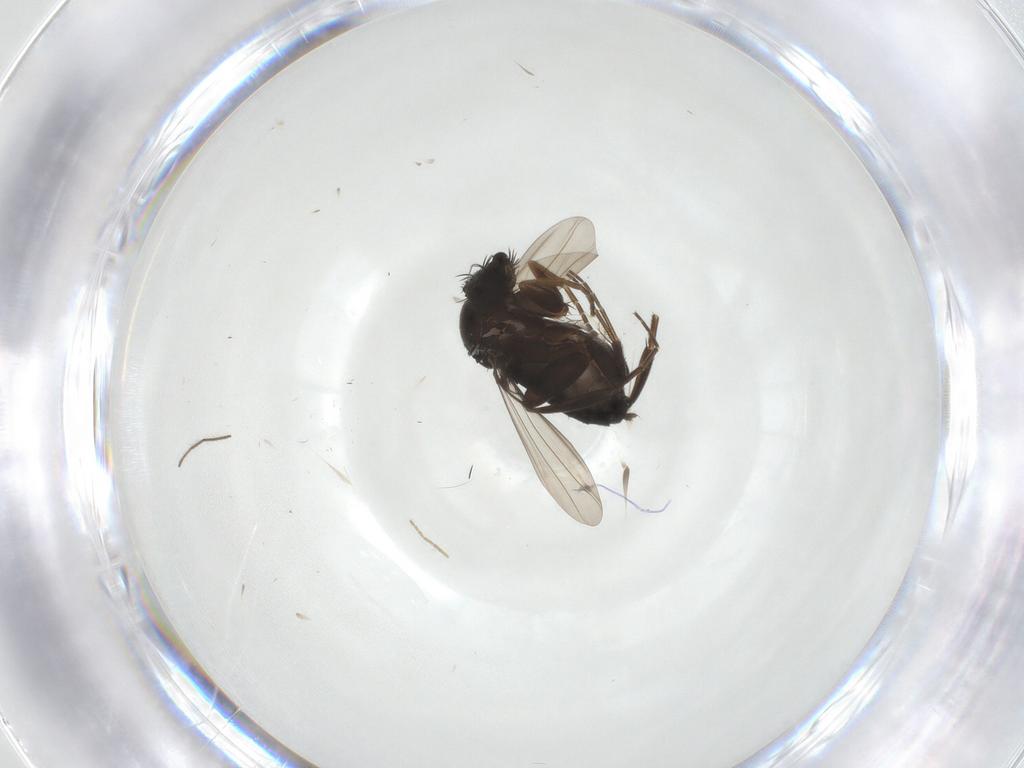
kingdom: Animalia
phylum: Arthropoda
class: Insecta
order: Diptera
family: Chironomidae
